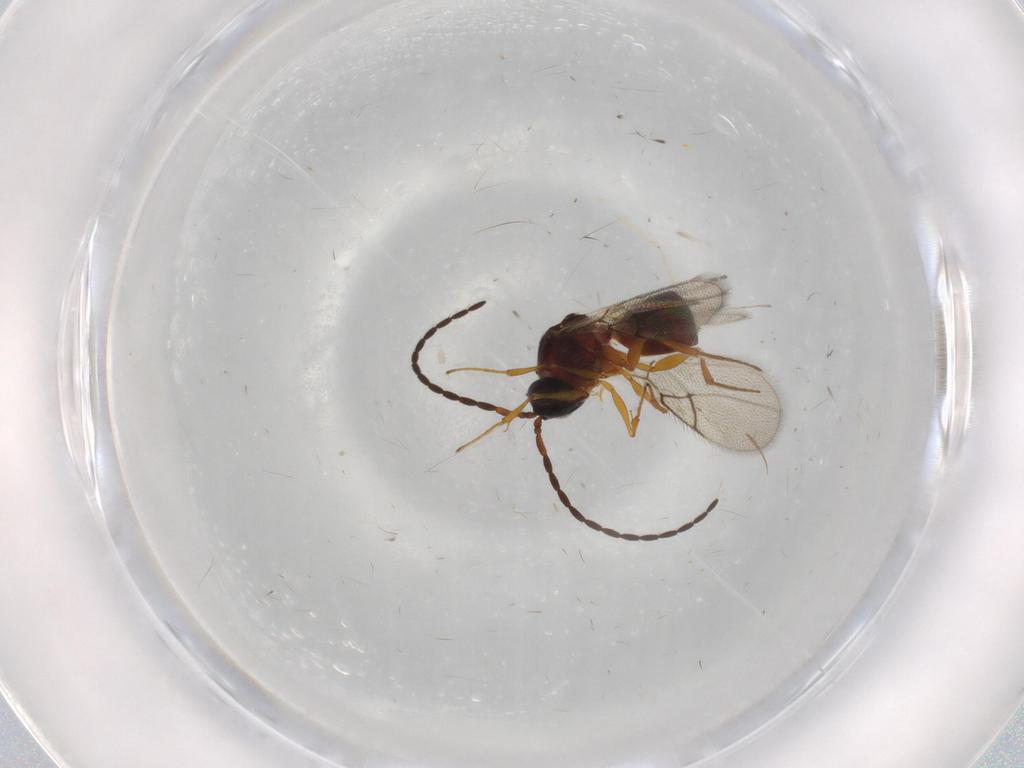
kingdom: Animalia
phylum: Arthropoda
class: Insecta
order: Hymenoptera
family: Figitidae
